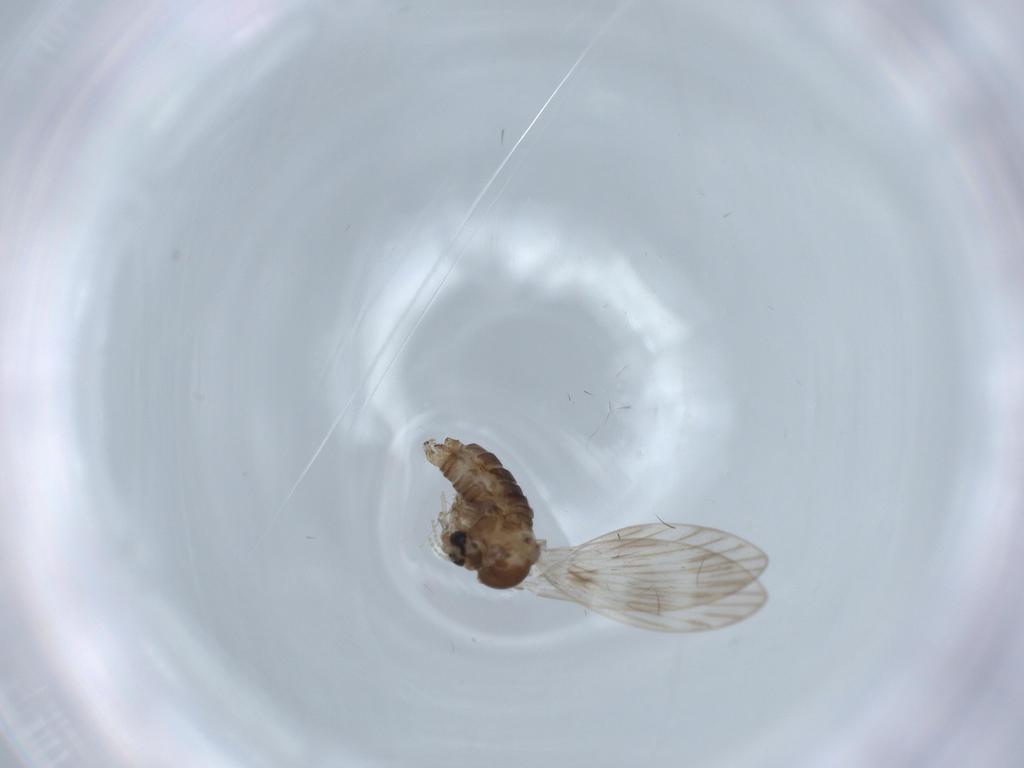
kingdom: Animalia
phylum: Arthropoda
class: Insecta
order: Diptera
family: Psychodidae
